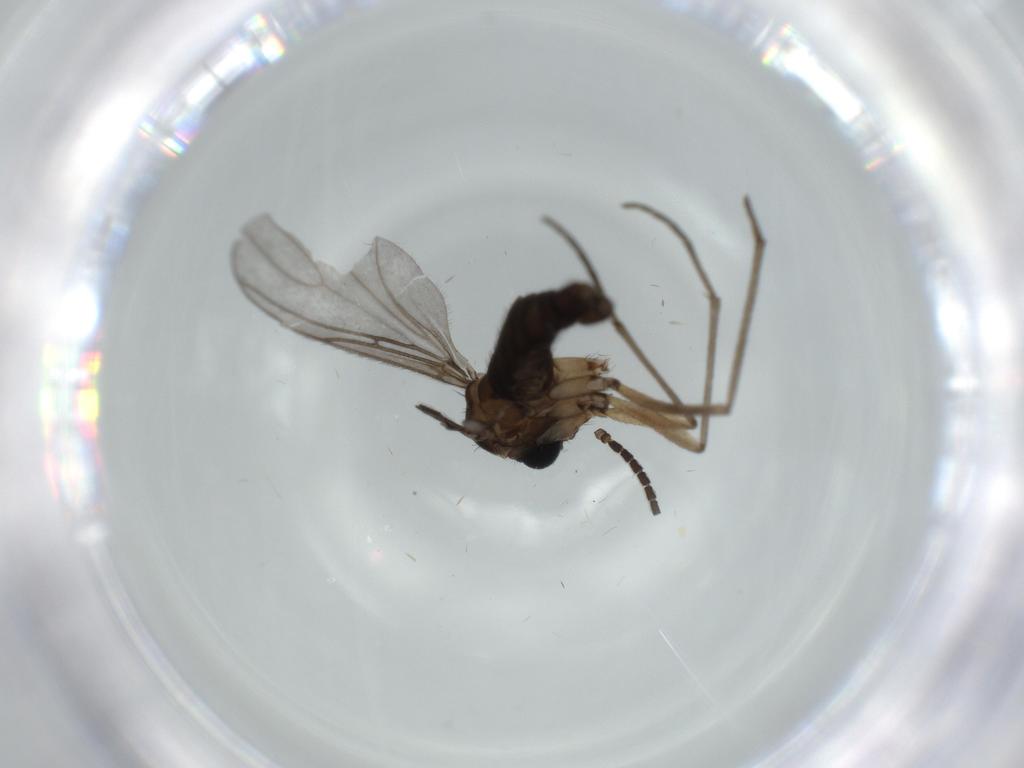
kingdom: Animalia
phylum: Arthropoda
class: Insecta
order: Diptera
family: Sciaridae
